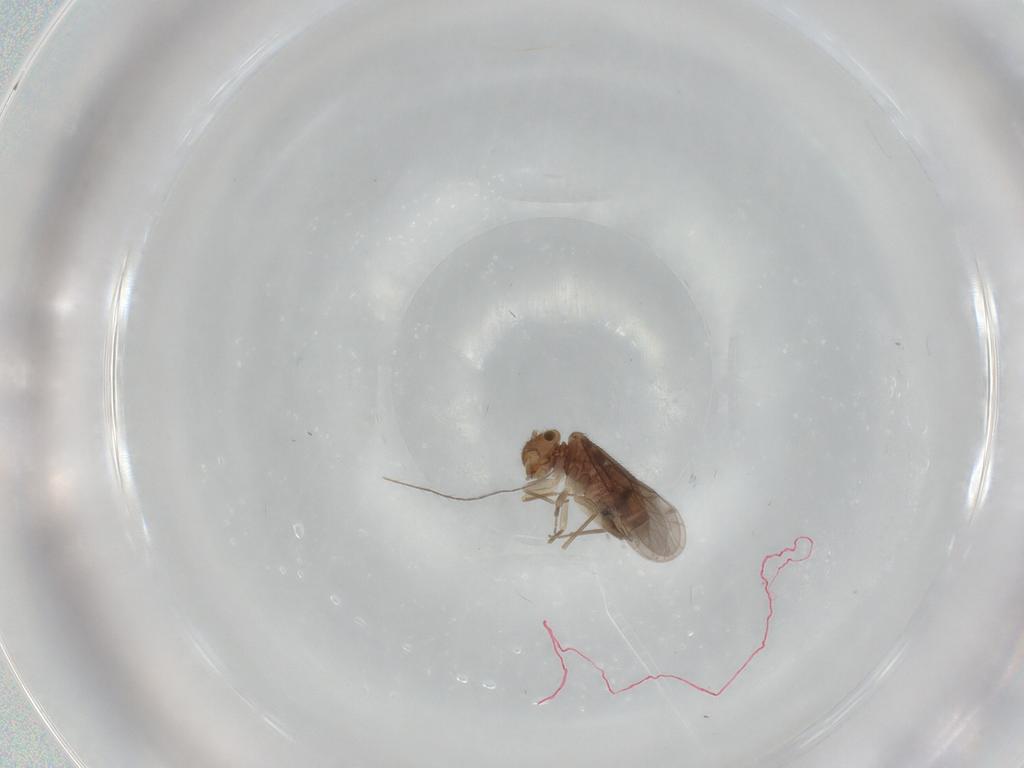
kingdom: Animalia
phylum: Arthropoda
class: Insecta
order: Psocodea
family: Ectopsocidae
